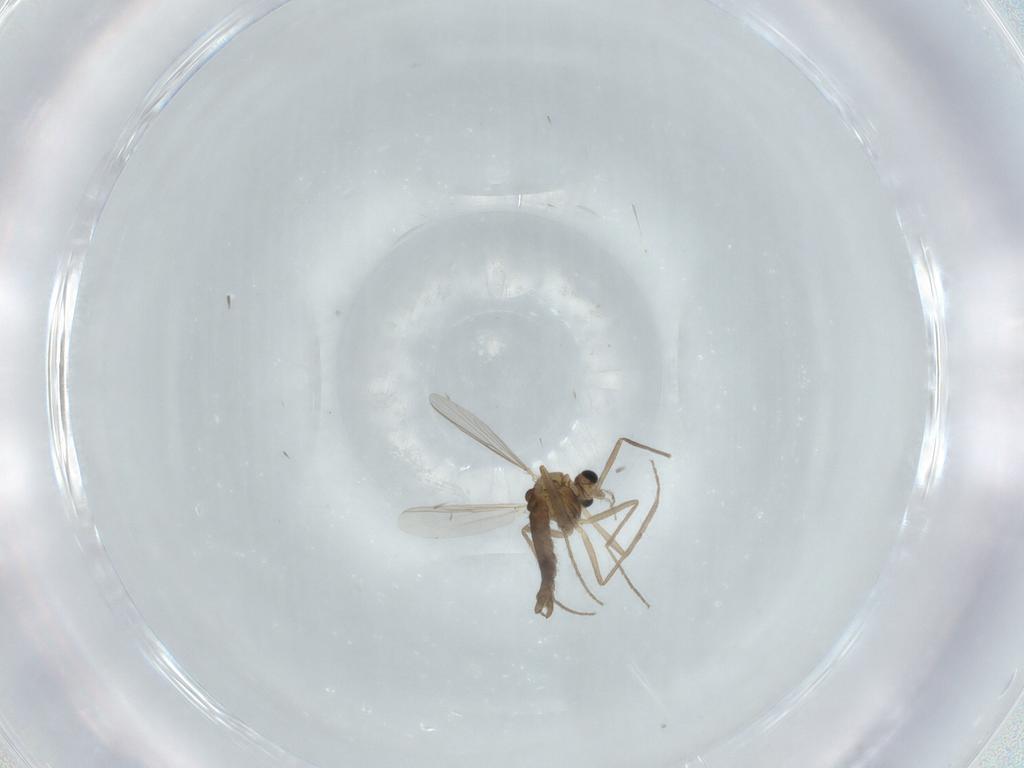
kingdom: Animalia
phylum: Arthropoda
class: Insecta
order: Diptera
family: Chironomidae
